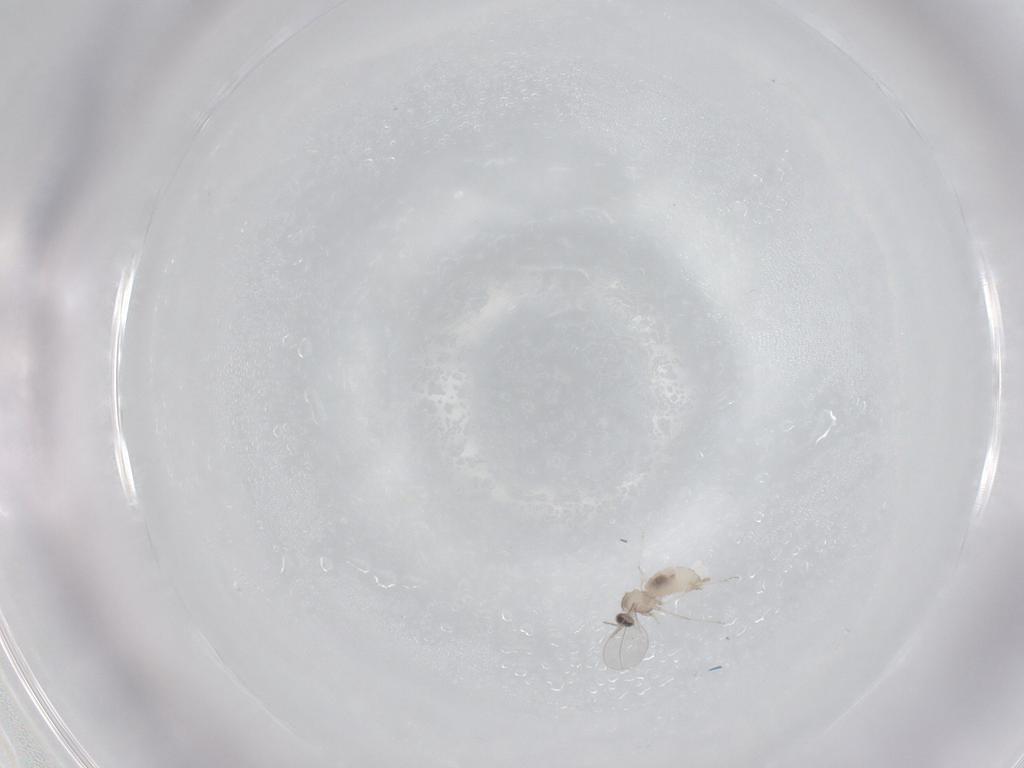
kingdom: Animalia
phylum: Arthropoda
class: Insecta
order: Diptera
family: Cecidomyiidae
